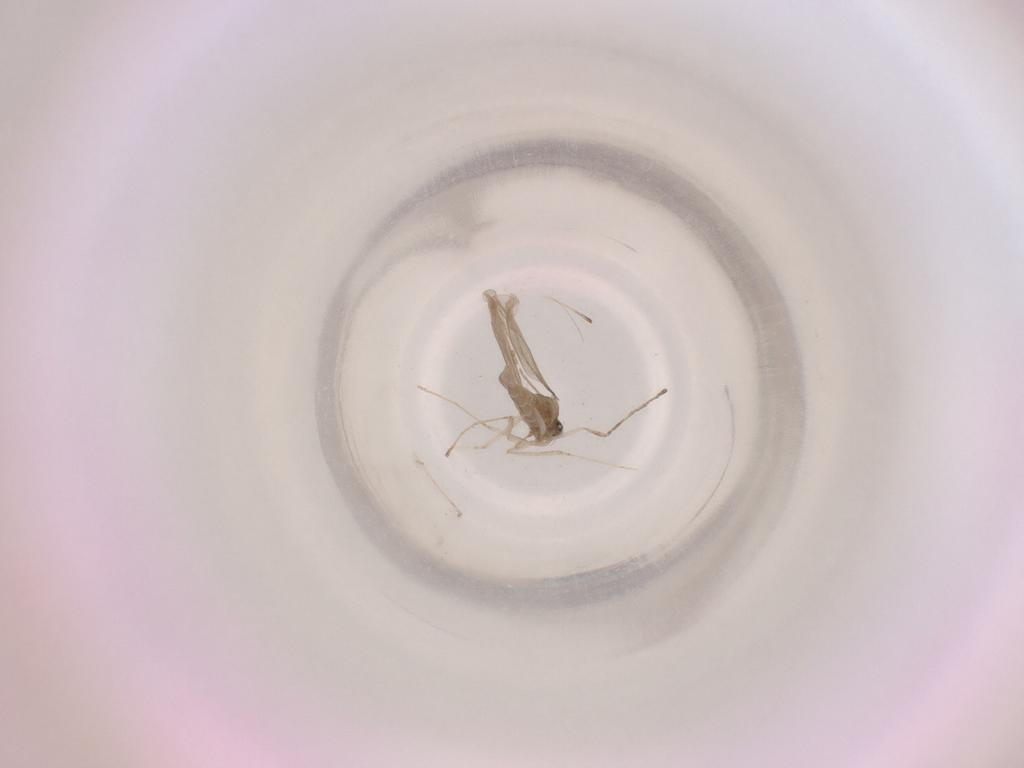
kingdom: Animalia
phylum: Arthropoda
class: Insecta
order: Diptera
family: Cecidomyiidae
